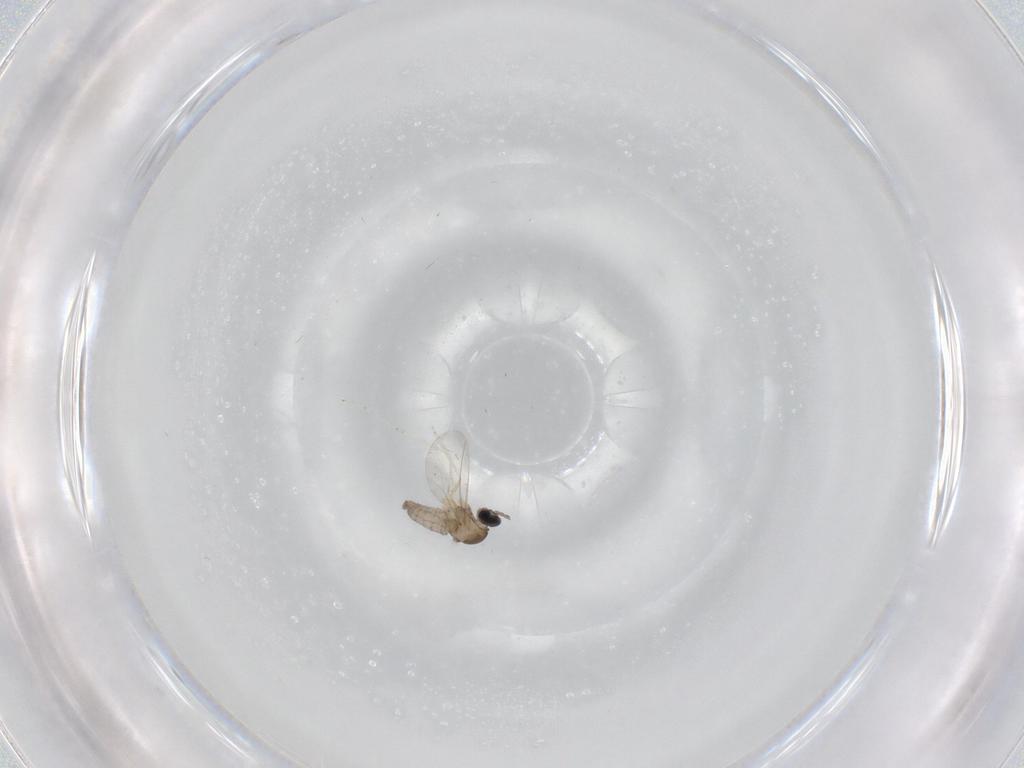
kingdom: Animalia
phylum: Arthropoda
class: Insecta
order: Diptera
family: Cecidomyiidae
